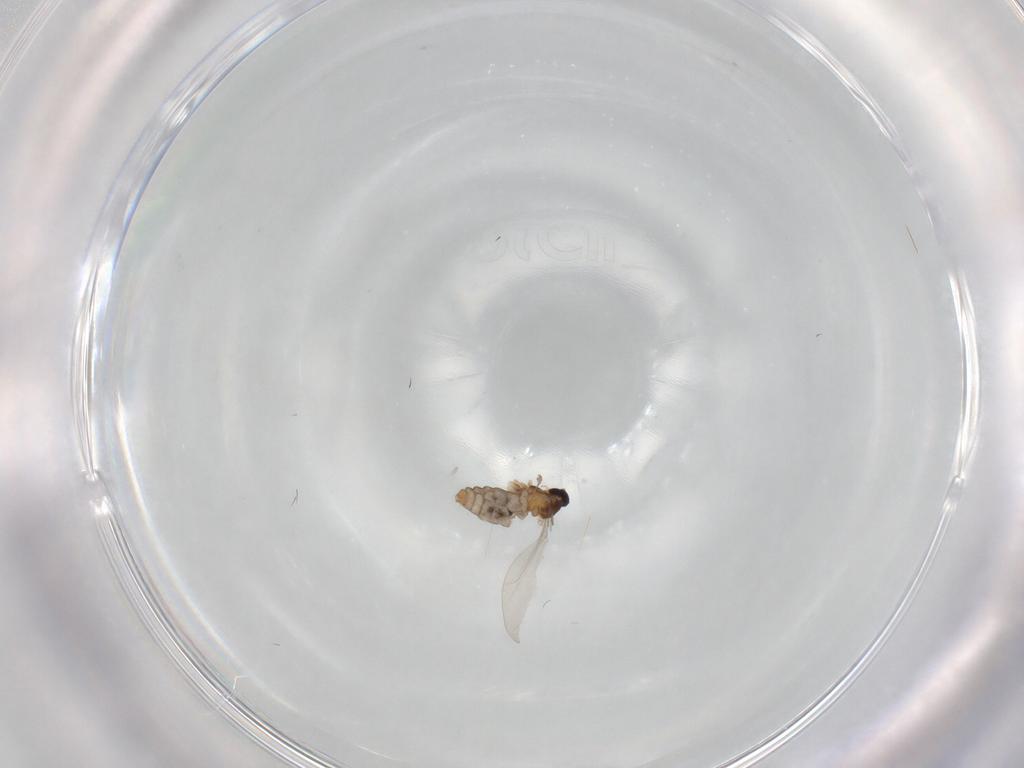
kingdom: Animalia
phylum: Arthropoda
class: Insecta
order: Diptera
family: Cecidomyiidae
